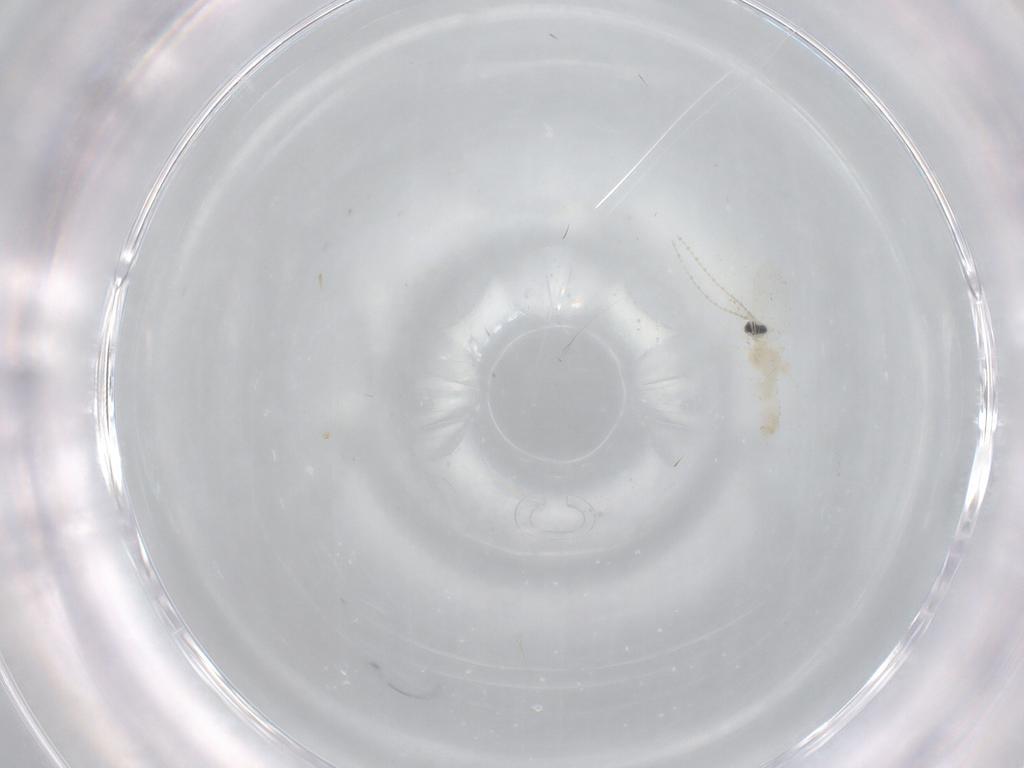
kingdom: Animalia
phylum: Arthropoda
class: Insecta
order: Diptera
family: Cecidomyiidae
